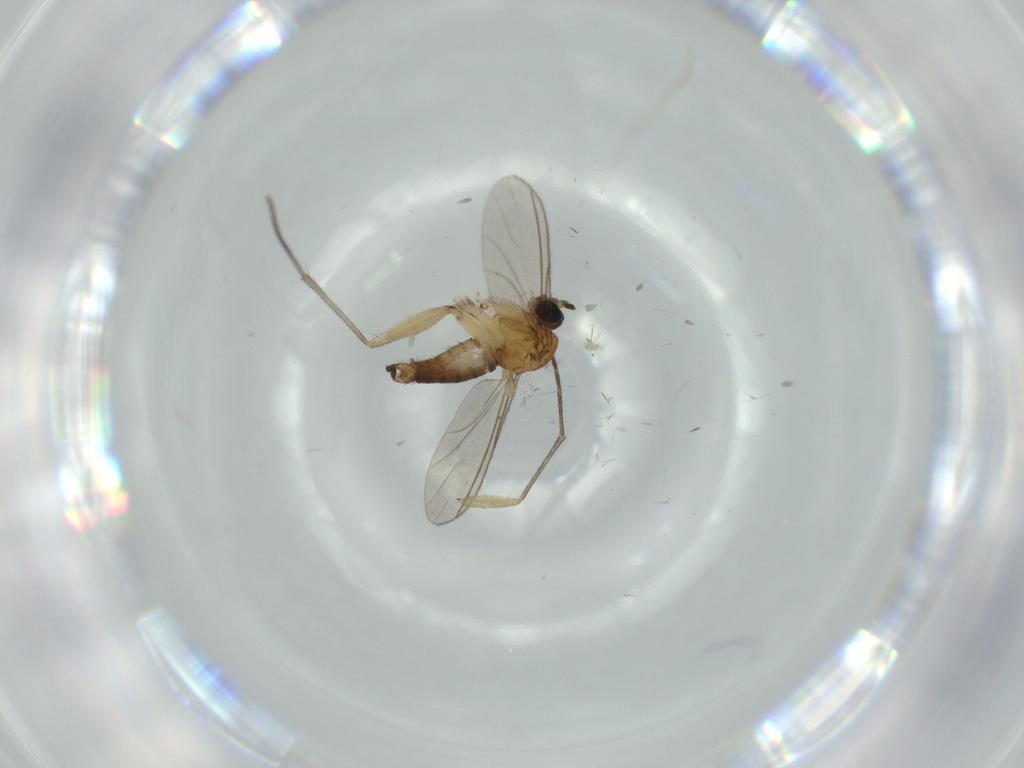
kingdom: Animalia
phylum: Arthropoda
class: Insecta
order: Diptera
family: Sciaridae
